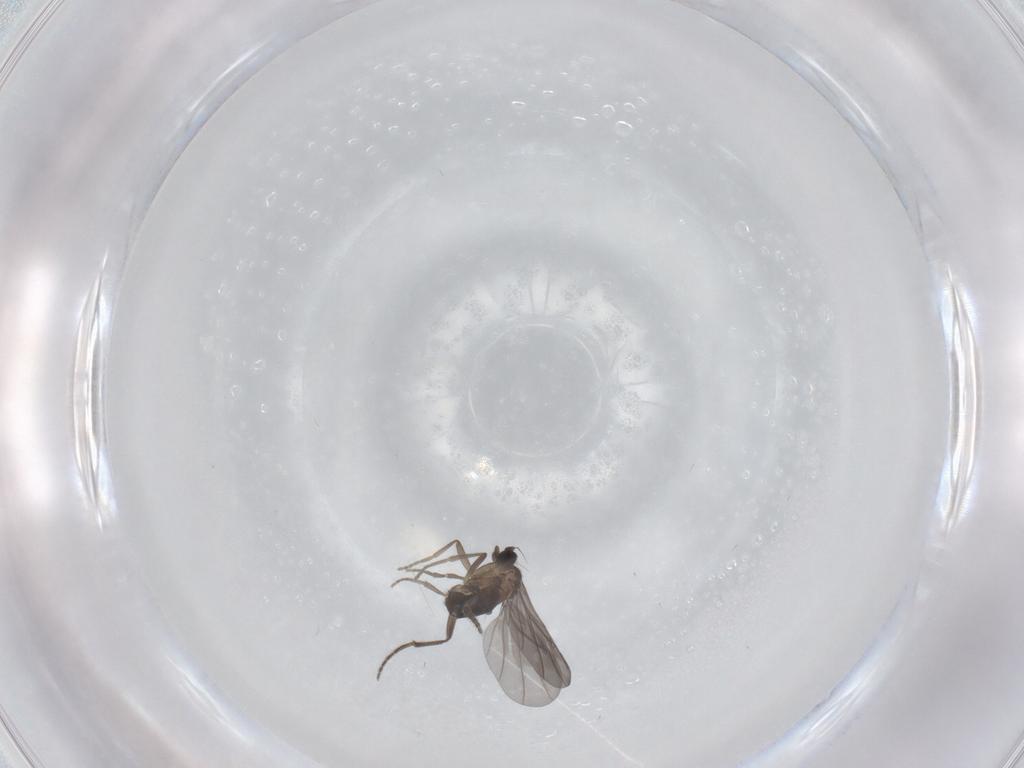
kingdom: Animalia
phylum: Arthropoda
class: Insecta
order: Diptera
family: Phoridae
